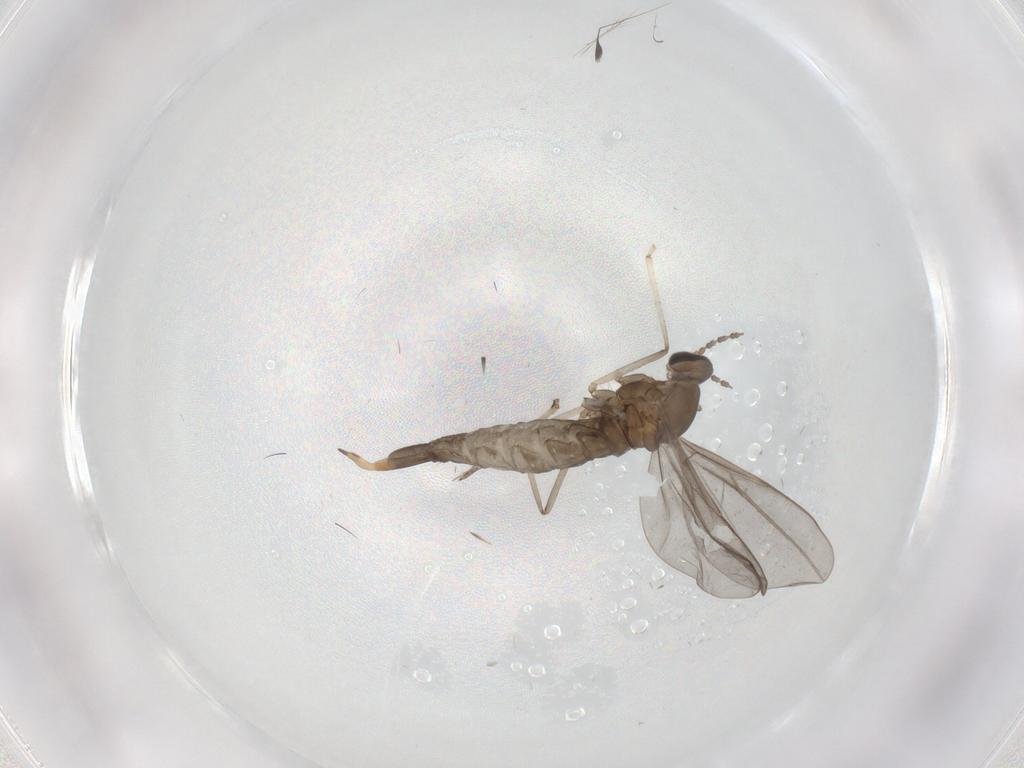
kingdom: Animalia
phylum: Arthropoda
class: Insecta
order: Diptera
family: Cecidomyiidae
